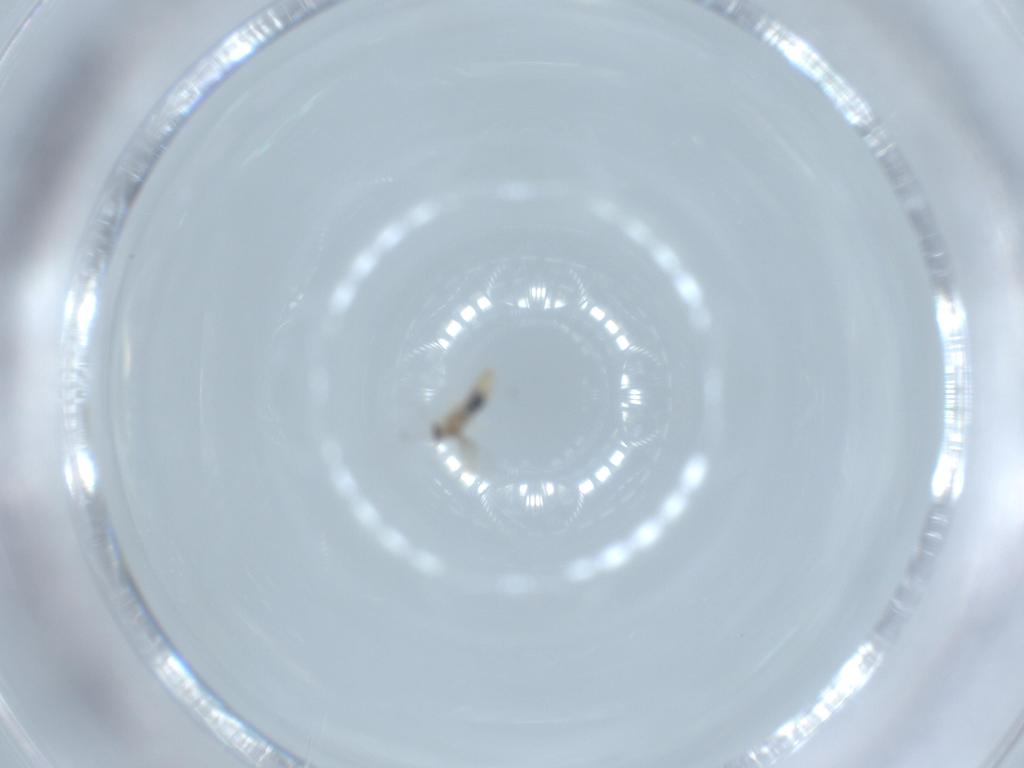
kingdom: Animalia
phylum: Arthropoda
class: Insecta
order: Diptera
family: Cecidomyiidae
